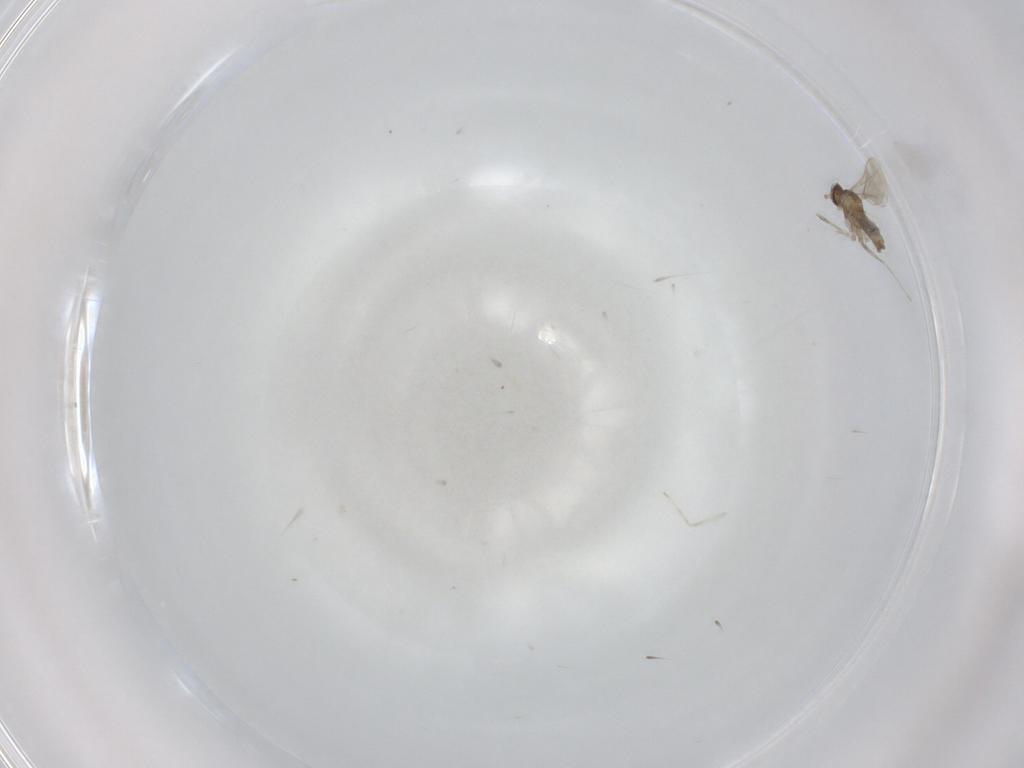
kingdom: Animalia
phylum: Arthropoda
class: Insecta
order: Diptera
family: Cecidomyiidae
